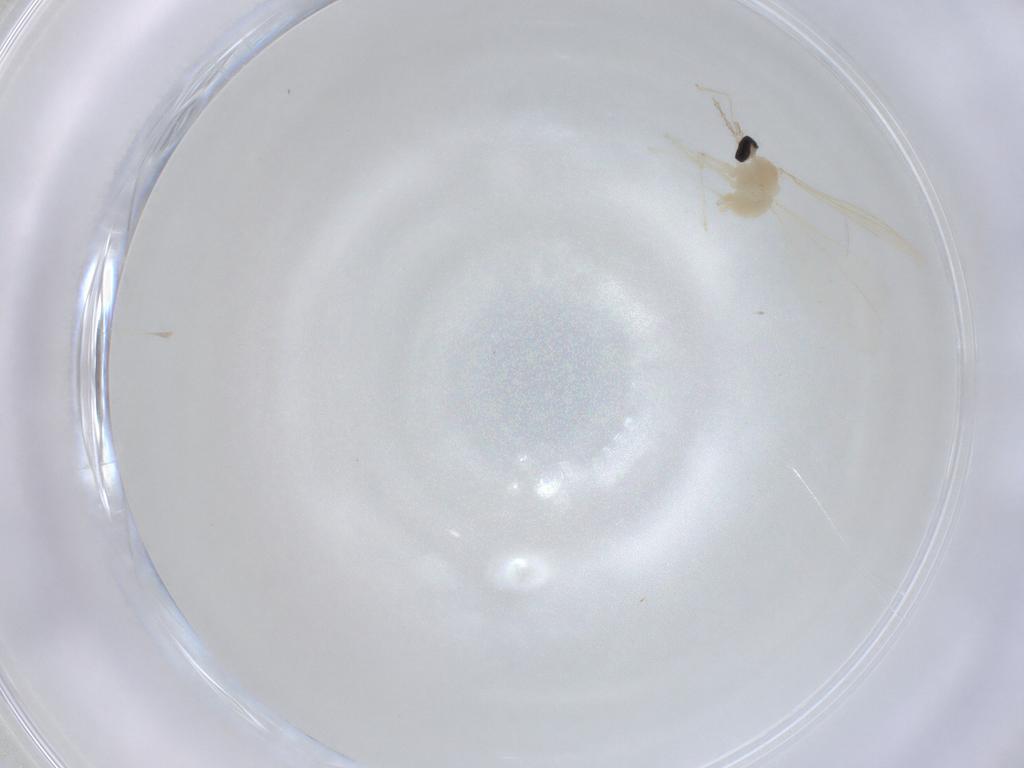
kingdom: Animalia
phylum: Arthropoda
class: Insecta
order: Diptera
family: Cecidomyiidae
